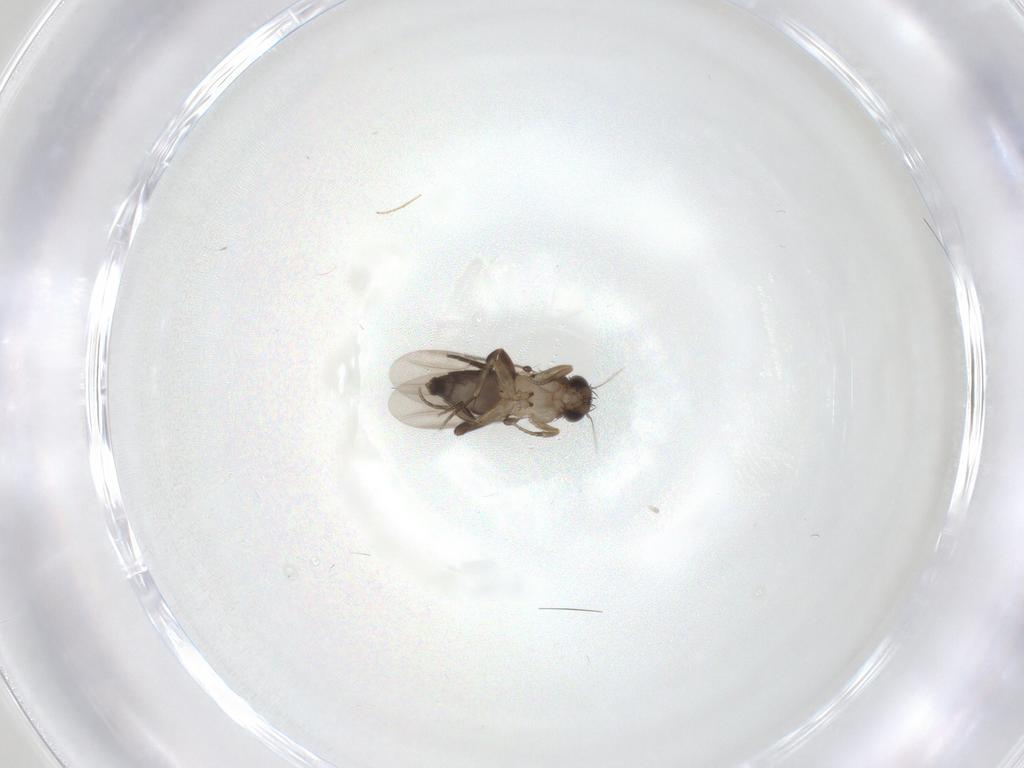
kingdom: Animalia
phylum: Arthropoda
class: Insecta
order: Diptera
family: Phoridae
